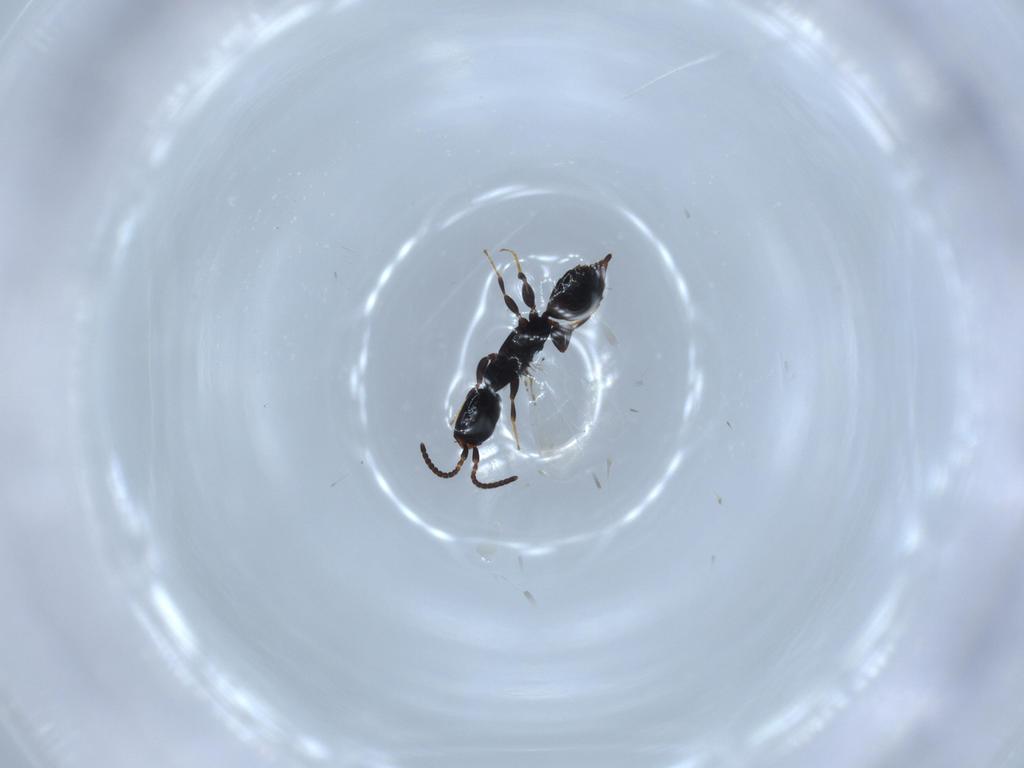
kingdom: Animalia
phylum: Arthropoda
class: Insecta
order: Hymenoptera
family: Bethylidae
